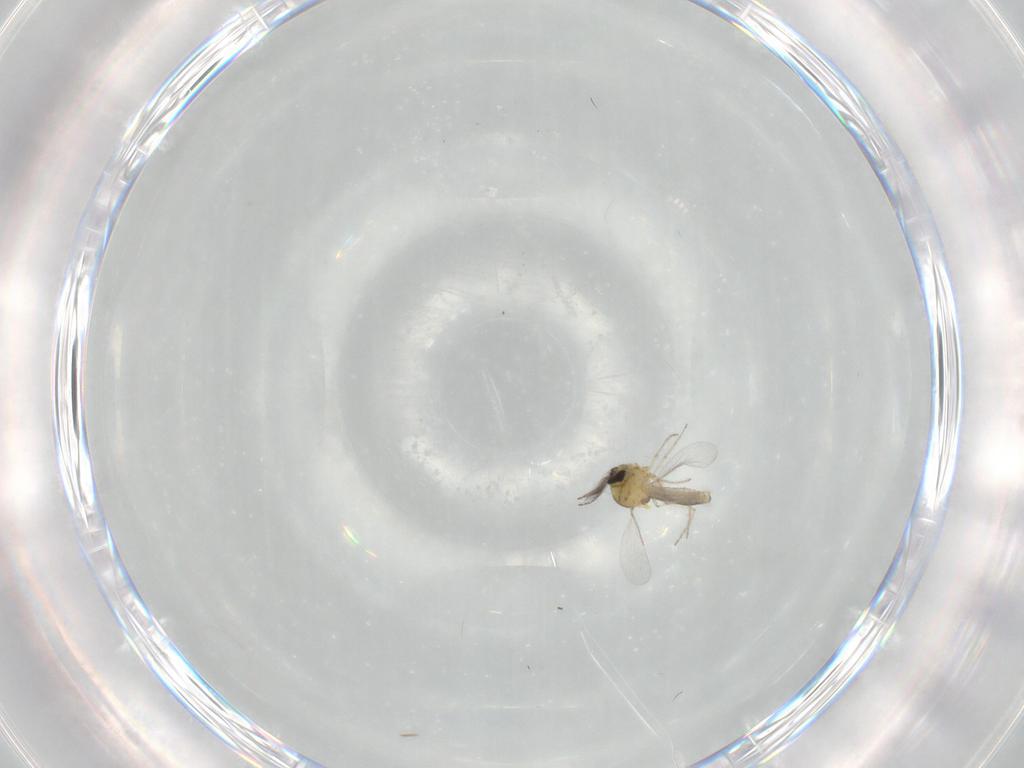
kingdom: Animalia
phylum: Arthropoda
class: Insecta
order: Diptera
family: Ceratopogonidae
